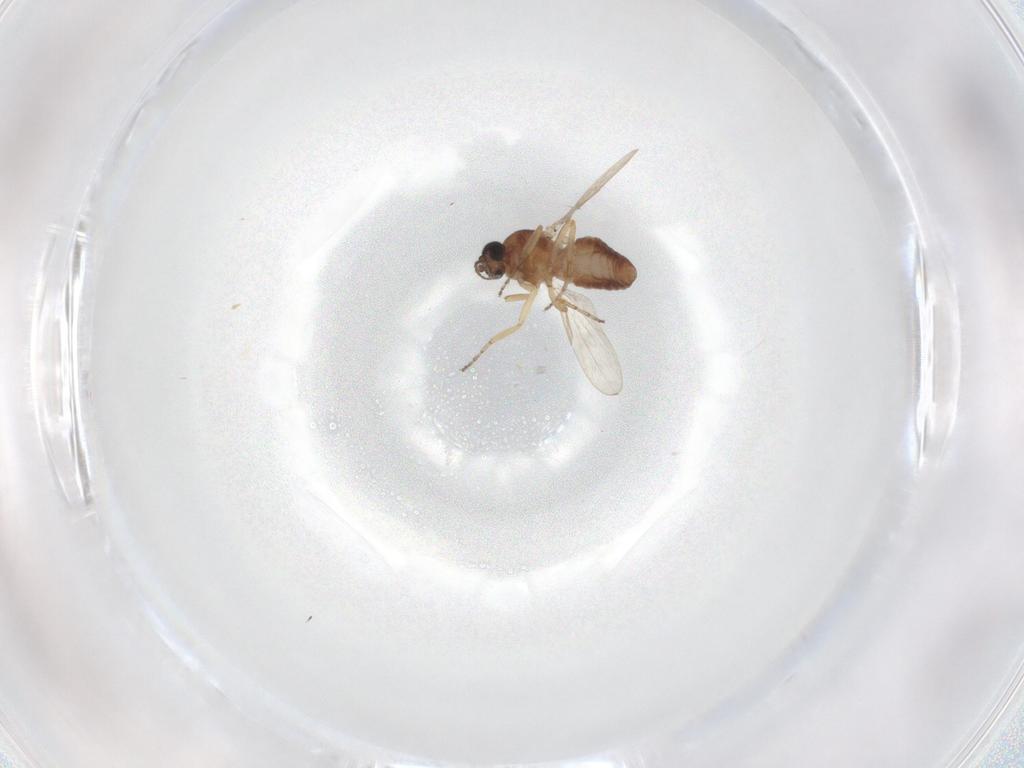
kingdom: Animalia
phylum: Arthropoda
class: Insecta
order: Diptera
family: Ceratopogonidae
